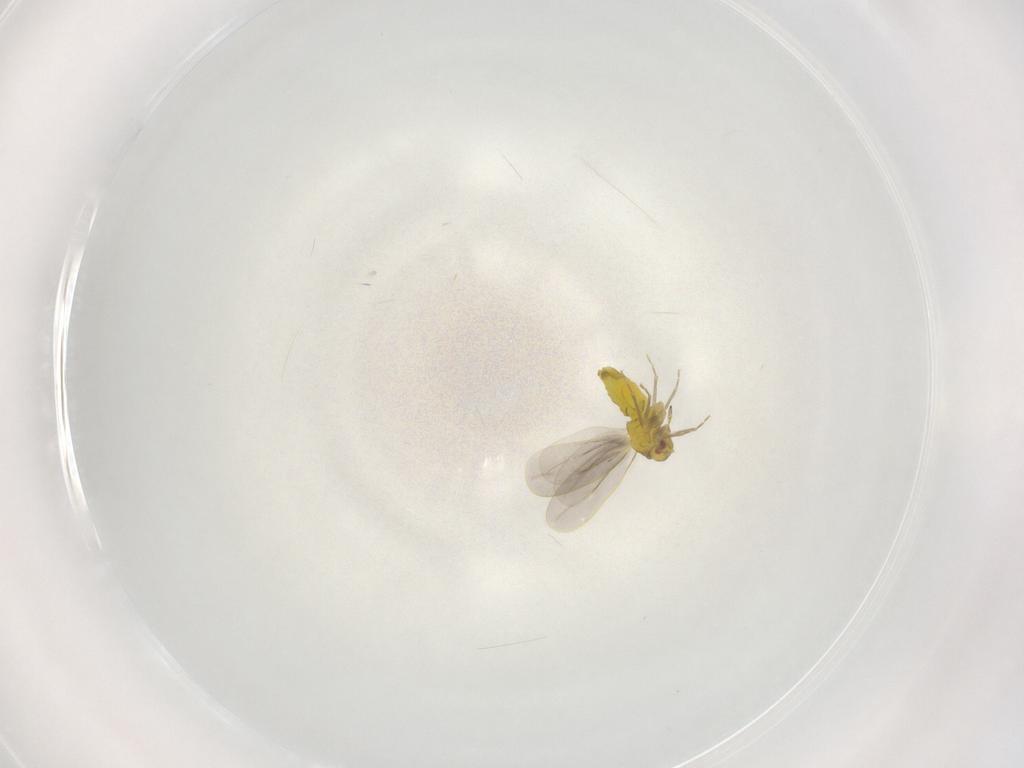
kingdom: Animalia
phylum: Arthropoda
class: Insecta
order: Hemiptera
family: Aleyrodidae
